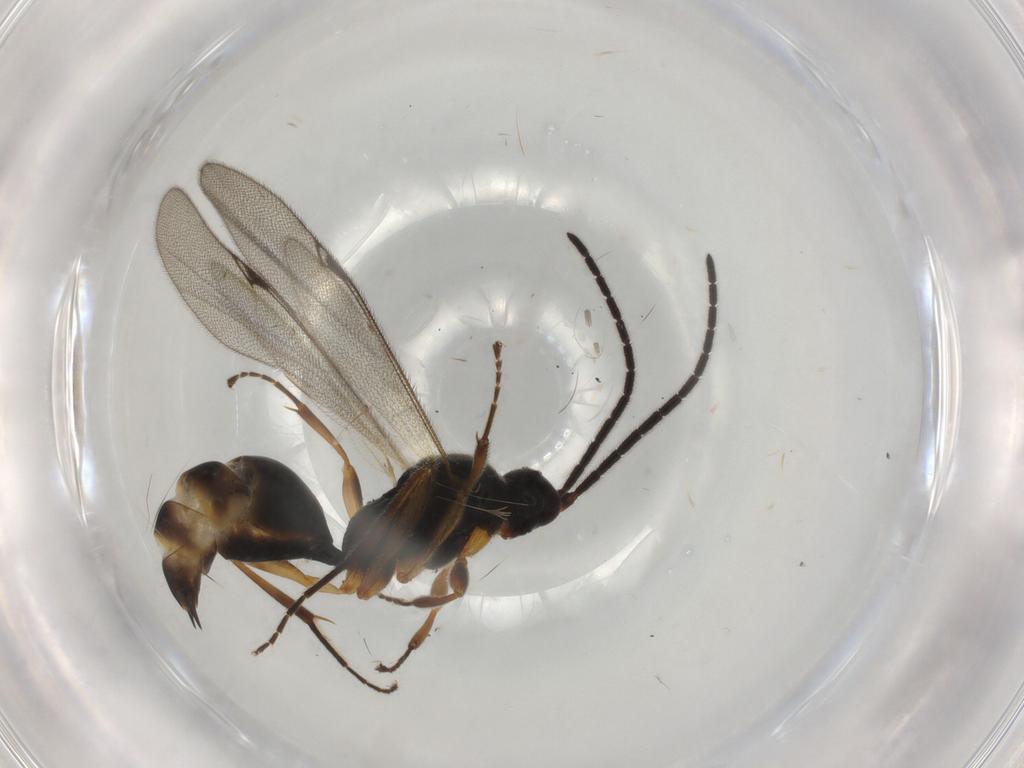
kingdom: Animalia
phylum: Arthropoda
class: Insecta
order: Hymenoptera
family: Proctotrupidae
